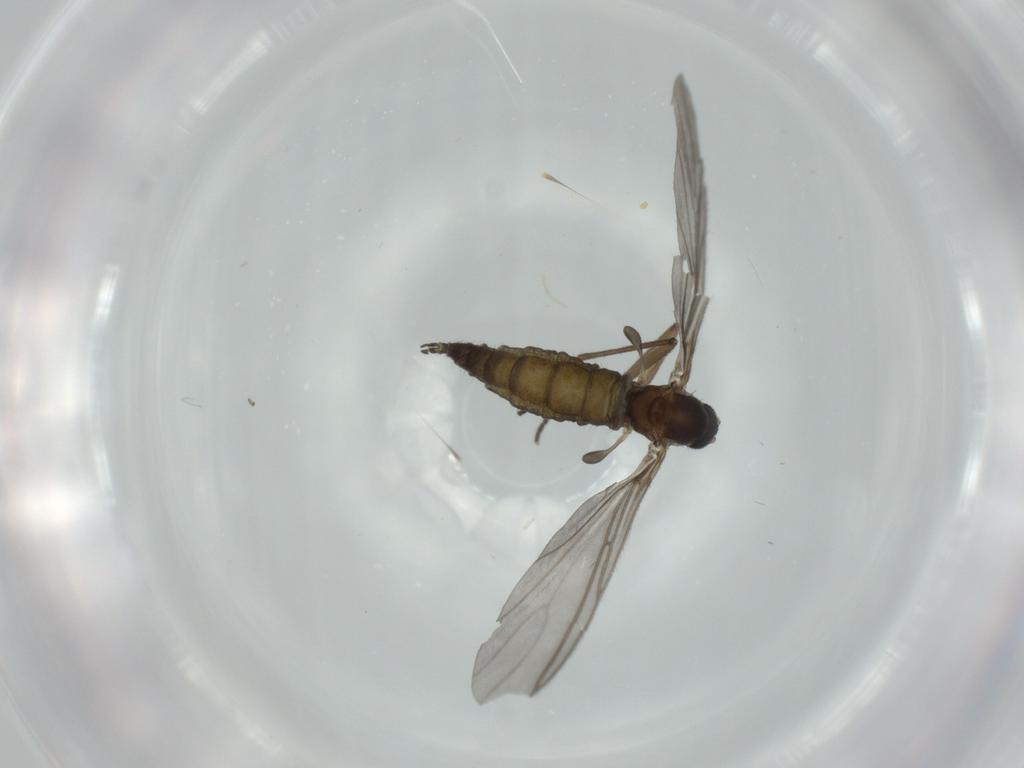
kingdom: Animalia
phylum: Arthropoda
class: Insecta
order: Diptera
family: Sciaridae
